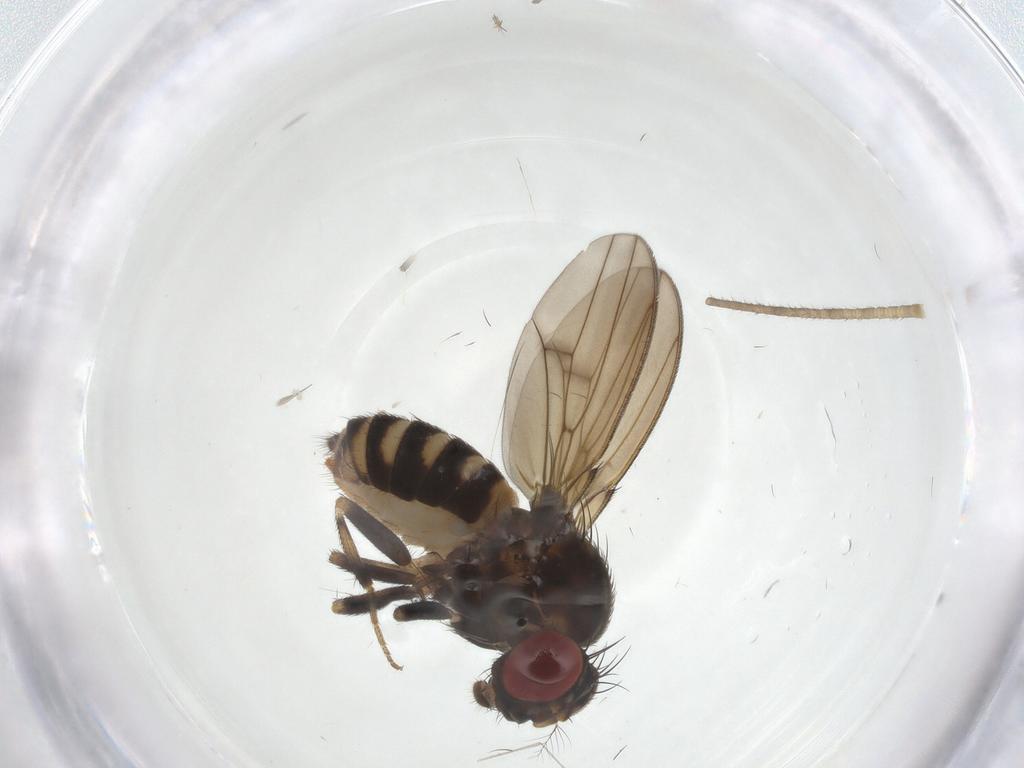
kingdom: Animalia
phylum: Arthropoda
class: Insecta
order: Diptera
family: Drosophilidae
